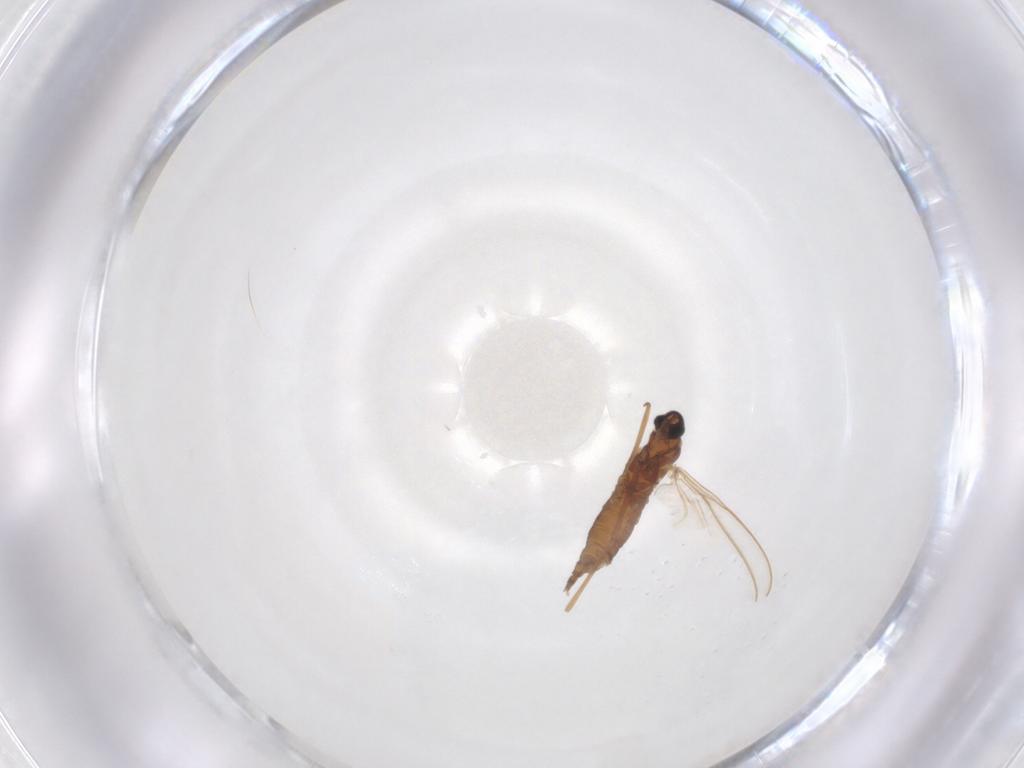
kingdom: Animalia
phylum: Arthropoda
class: Insecta
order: Diptera
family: Cecidomyiidae
